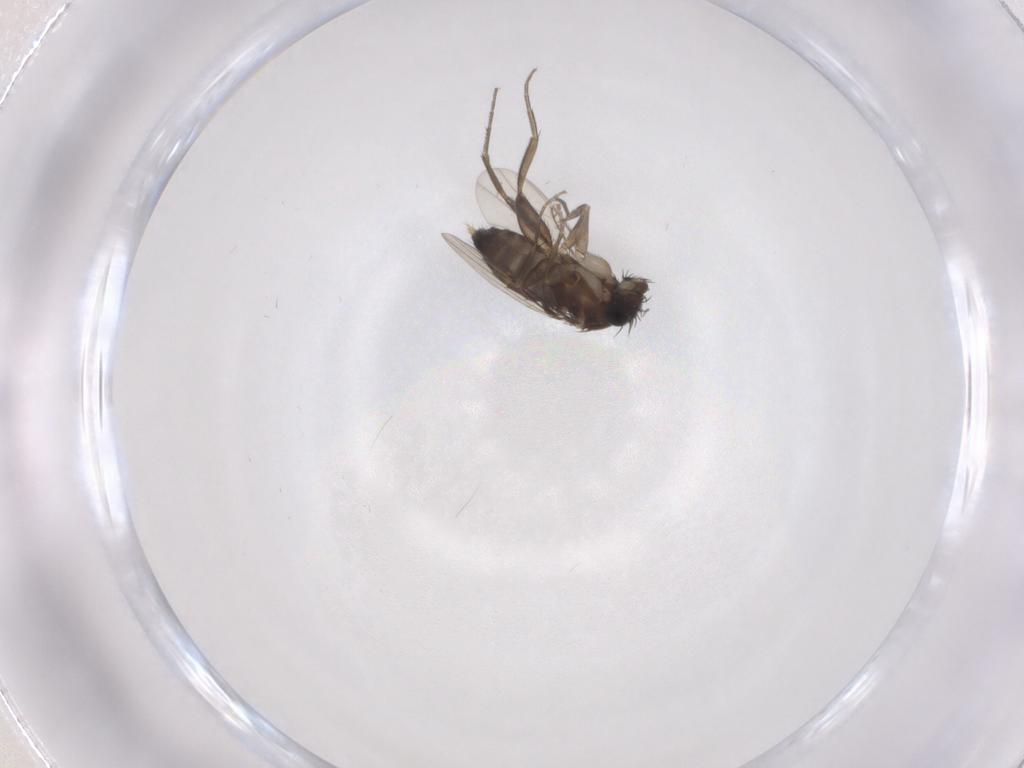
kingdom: Animalia
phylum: Arthropoda
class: Insecta
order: Diptera
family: Phoridae
